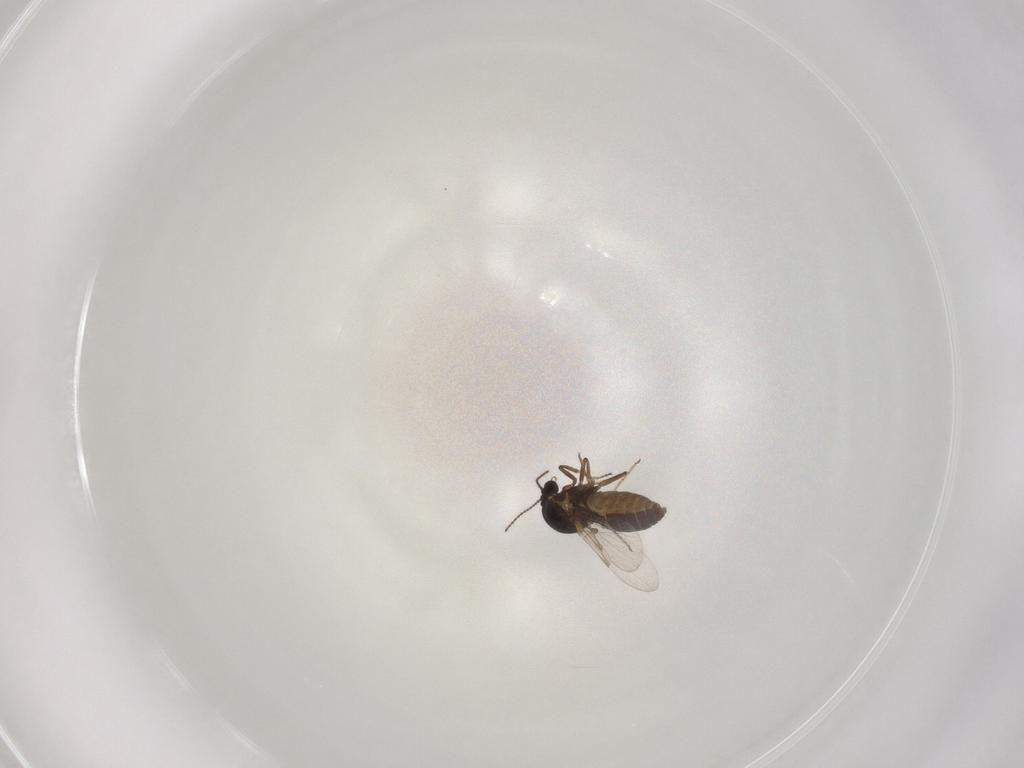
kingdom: Animalia
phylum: Arthropoda
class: Insecta
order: Diptera
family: Ceratopogonidae
